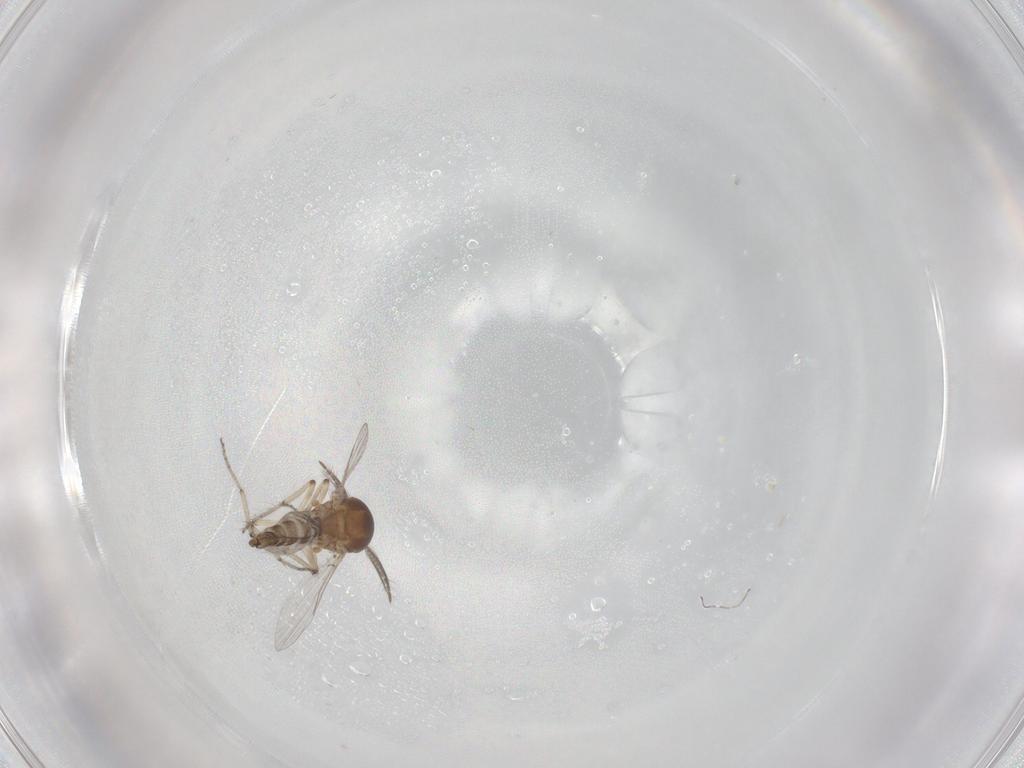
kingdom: Animalia
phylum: Arthropoda
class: Insecta
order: Diptera
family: Ceratopogonidae
